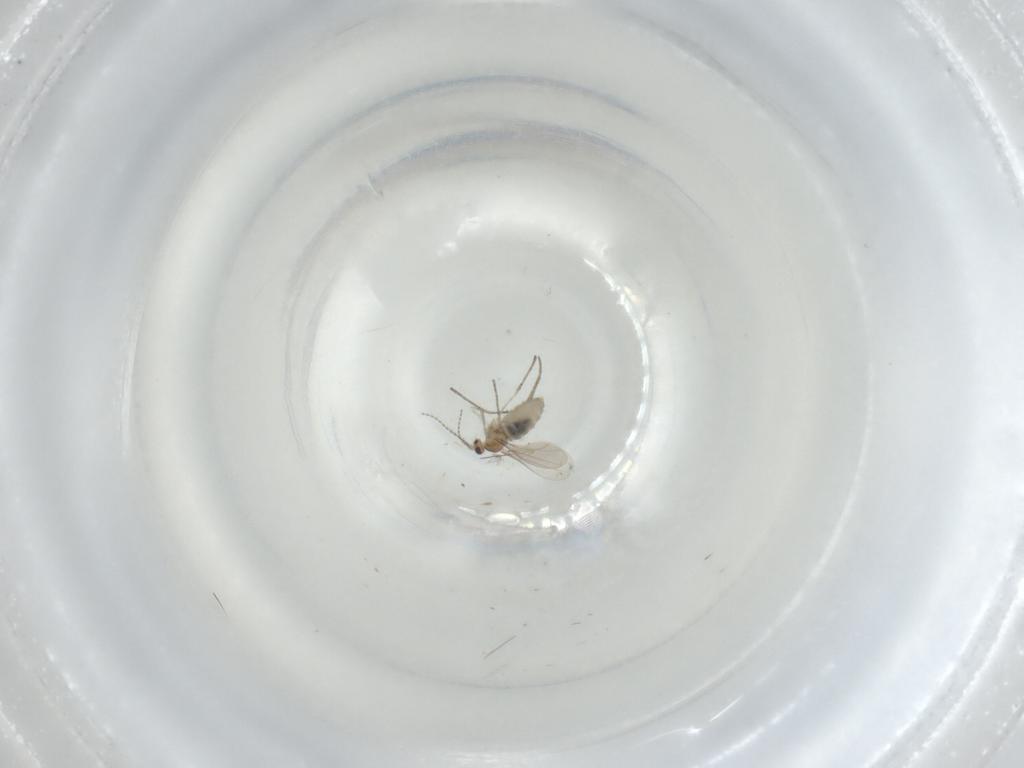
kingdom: Animalia
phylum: Arthropoda
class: Insecta
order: Diptera
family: Cecidomyiidae
